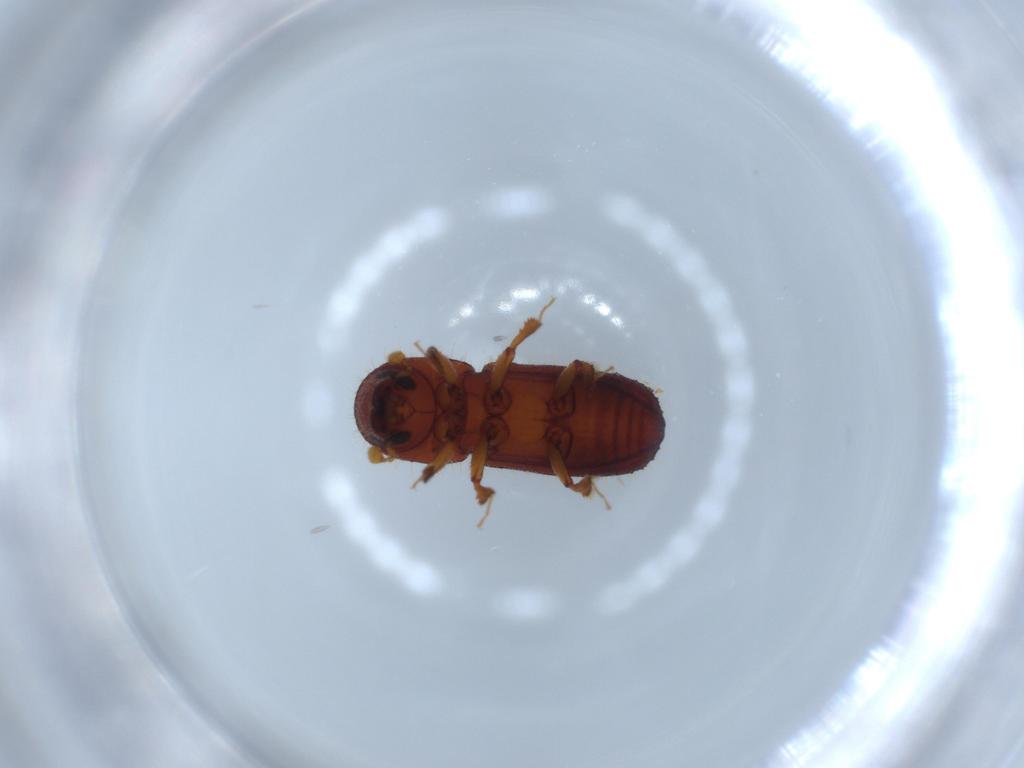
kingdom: Animalia
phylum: Arthropoda
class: Insecta
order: Coleoptera
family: Curculionidae
